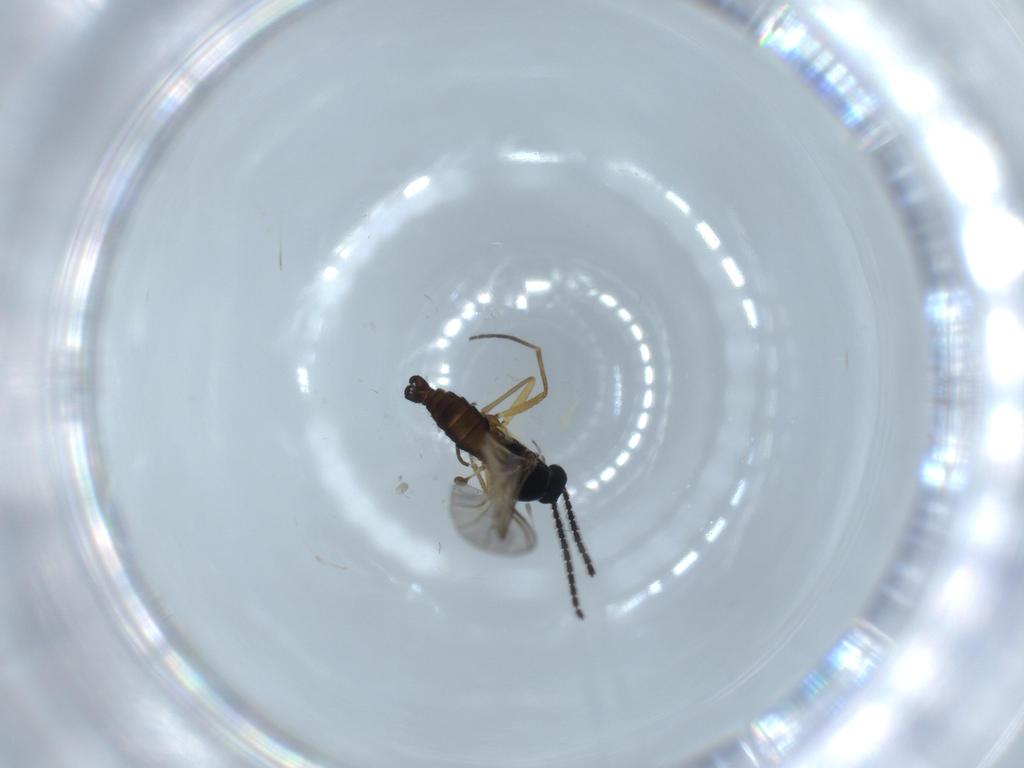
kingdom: Animalia
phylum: Arthropoda
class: Insecta
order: Diptera
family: Sciaridae
